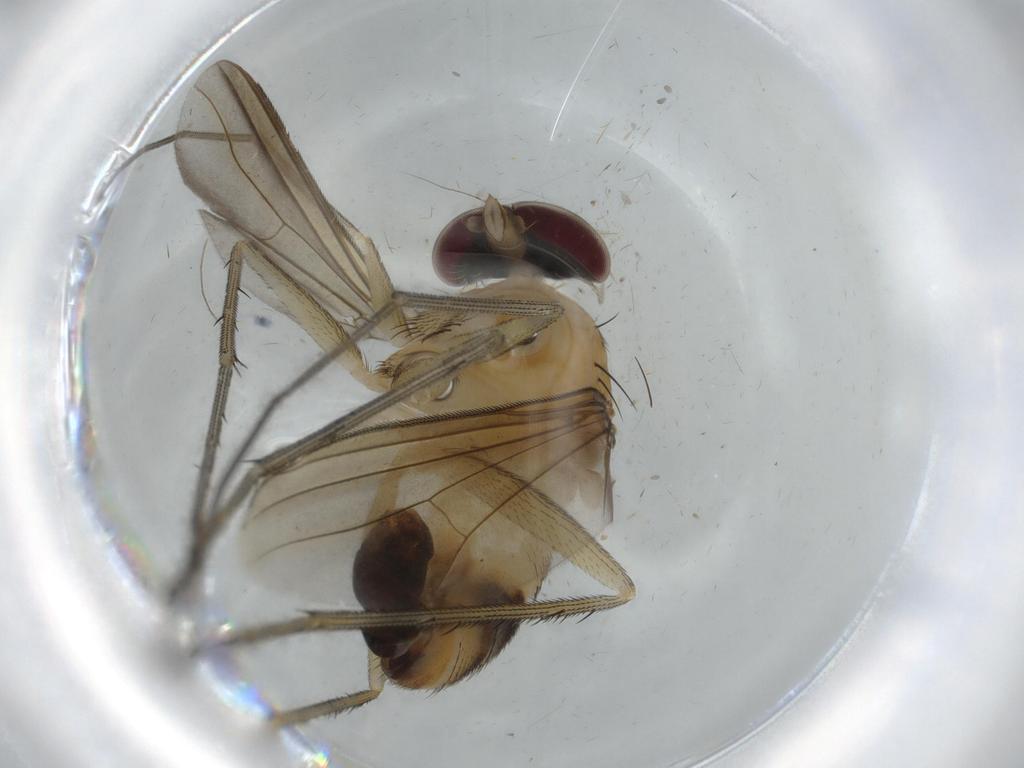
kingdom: Animalia
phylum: Arthropoda
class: Insecta
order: Diptera
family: Dolichopodidae
